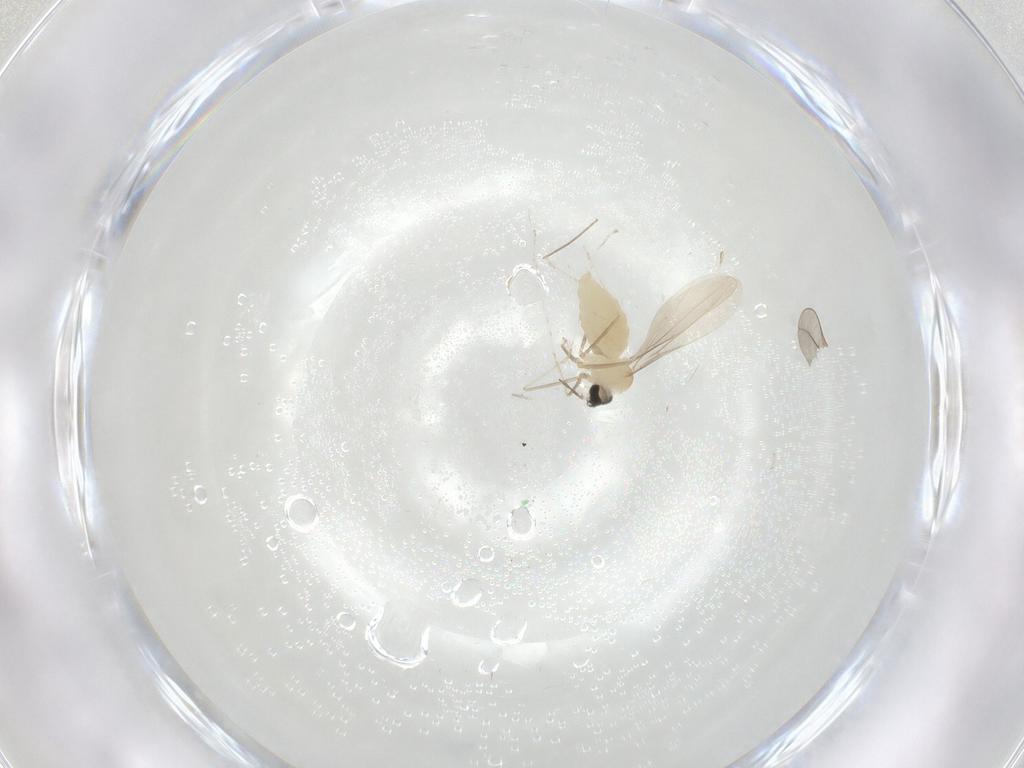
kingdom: Animalia
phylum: Arthropoda
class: Insecta
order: Diptera
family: Cecidomyiidae
